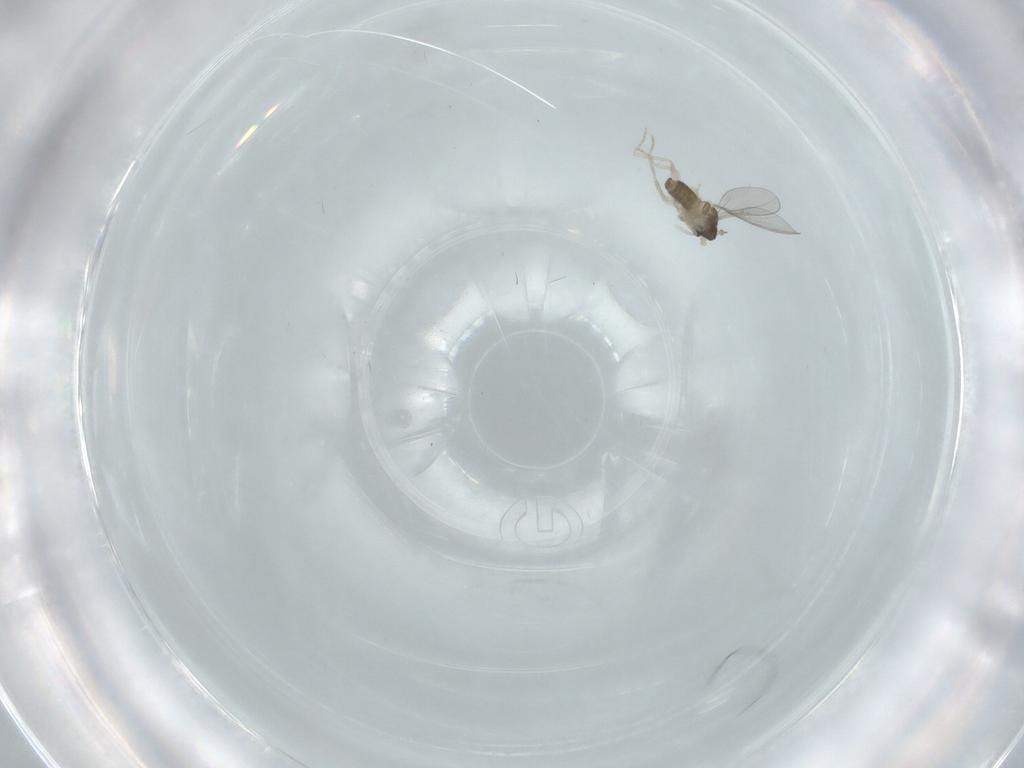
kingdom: Animalia
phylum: Arthropoda
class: Insecta
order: Diptera
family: Cecidomyiidae
